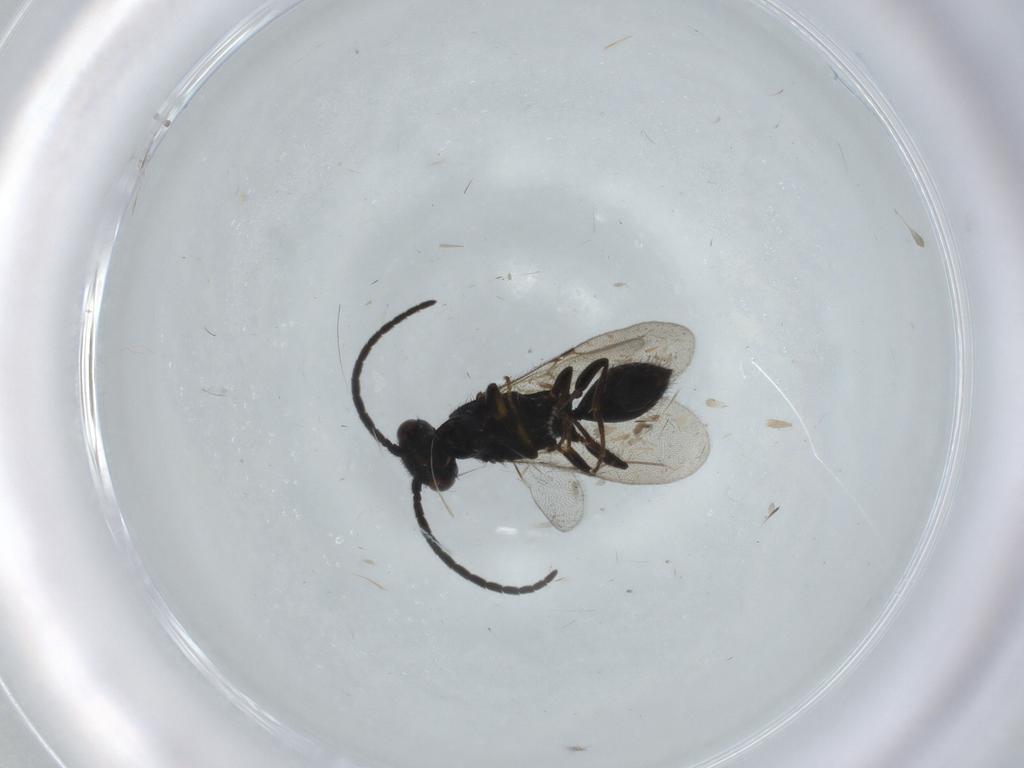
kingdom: Animalia
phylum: Arthropoda
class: Insecta
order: Hymenoptera
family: Bethylidae
